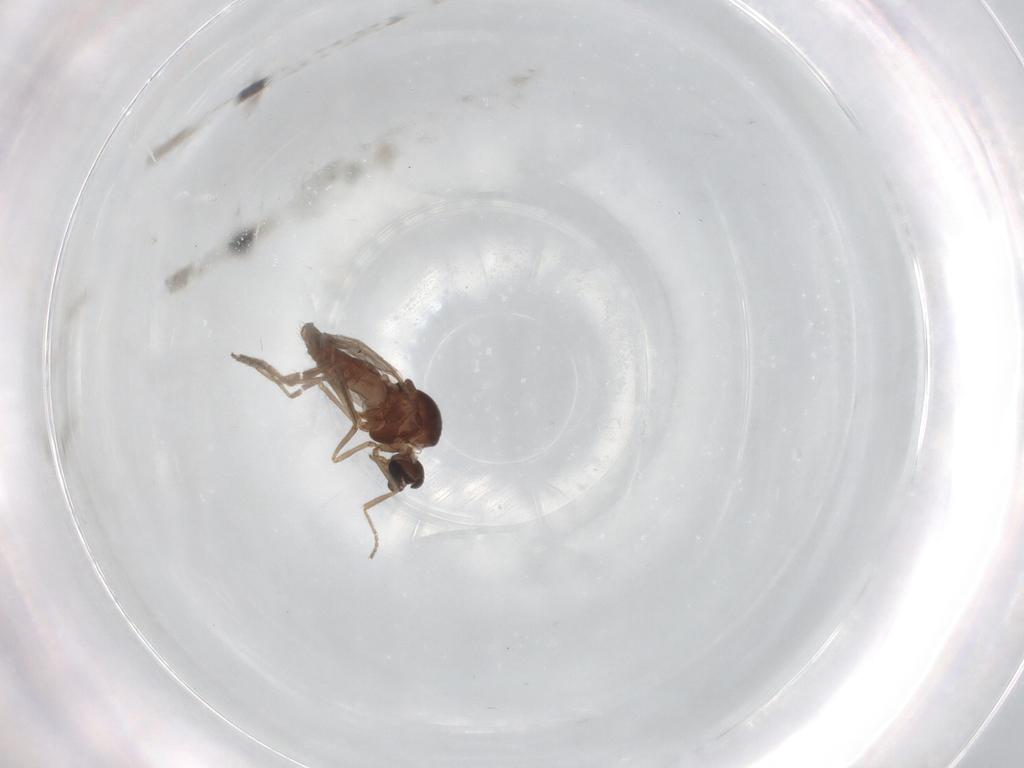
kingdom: Animalia
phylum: Arthropoda
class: Insecta
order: Diptera
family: Ceratopogonidae
